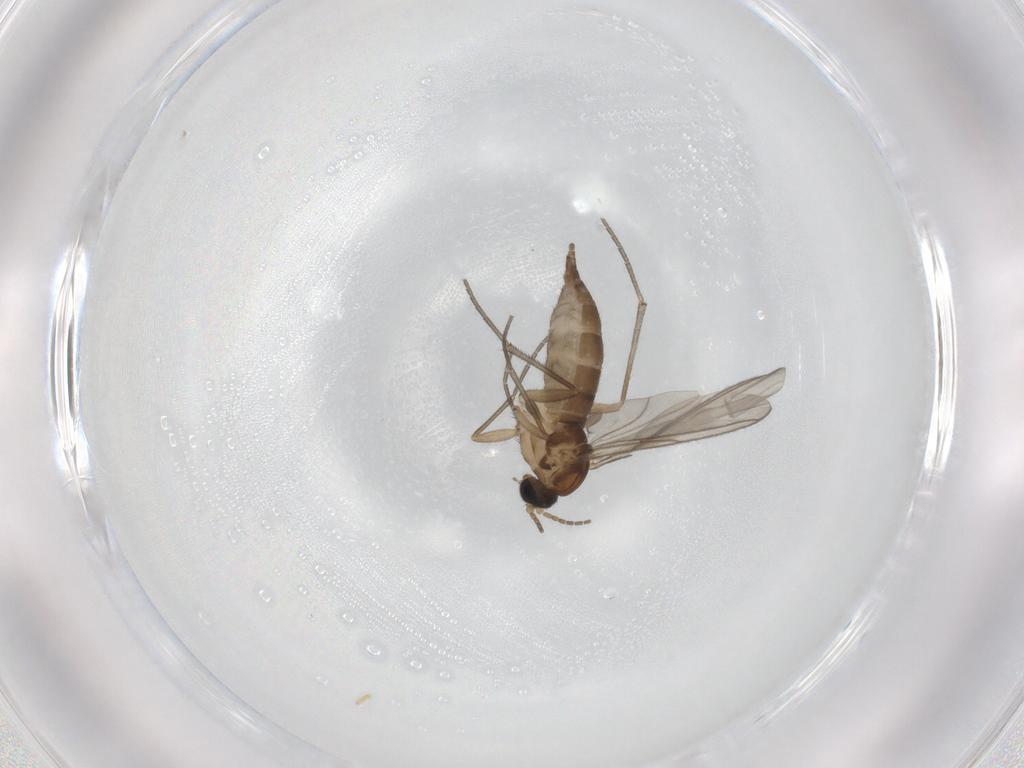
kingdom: Animalia
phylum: Arthropoda
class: Insecta
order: Diptera
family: Sciaridae
